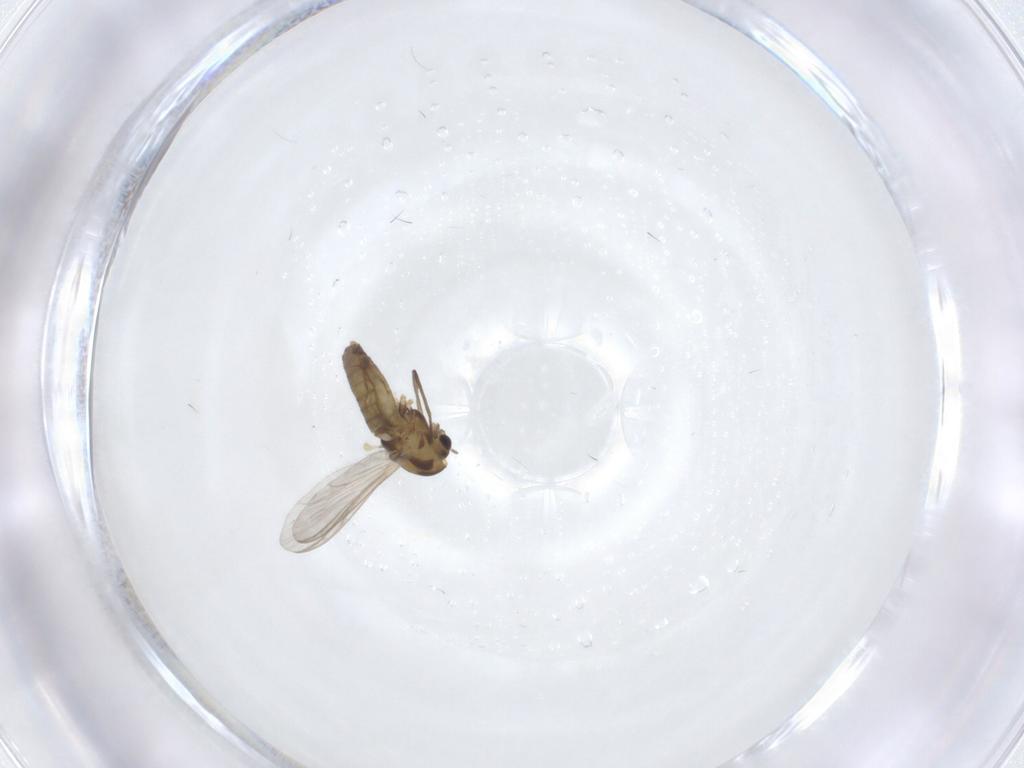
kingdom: Animalia
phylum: Arthropoda
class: Insecta
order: Diptera
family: Chironomidae
